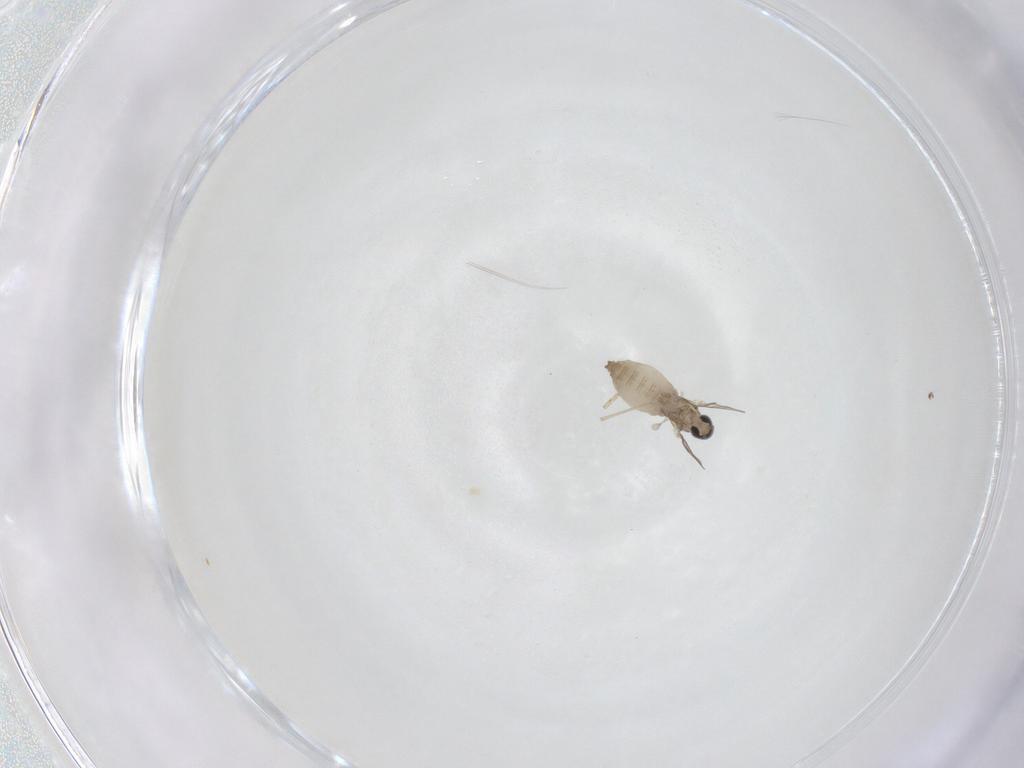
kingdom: Animalia
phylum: Arthropoda
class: Insecta
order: Diptera
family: Cecidomyiidae
